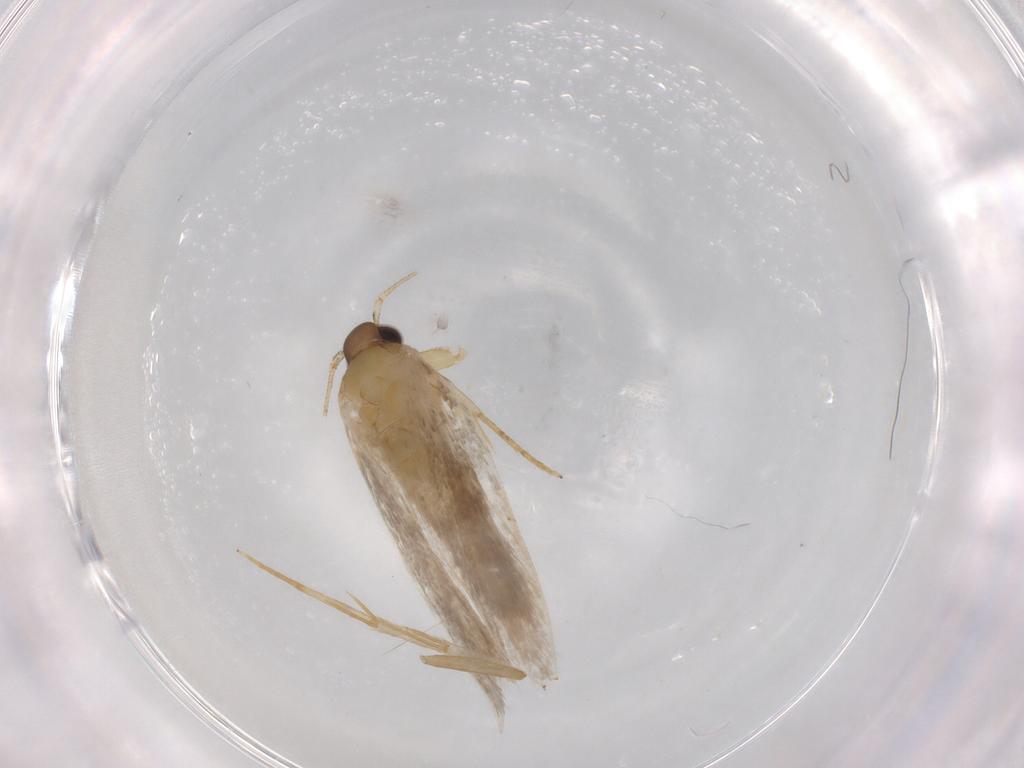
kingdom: Animalia
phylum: Arthropoda
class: Insecta
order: Lepidoptera
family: Autostichidae
